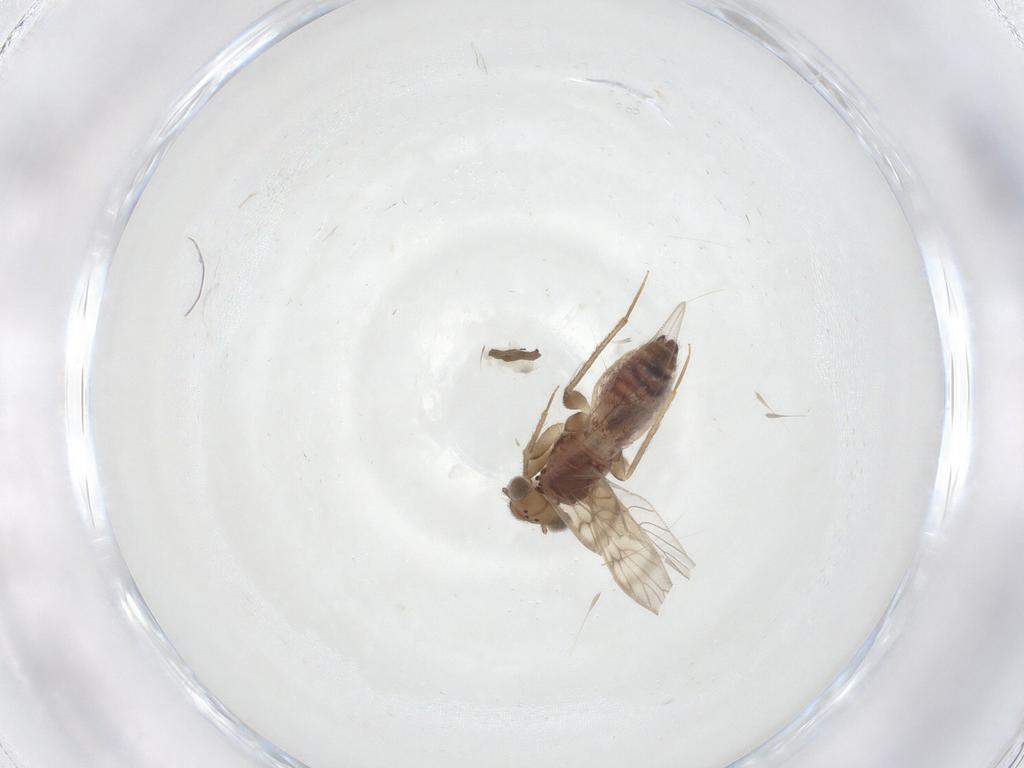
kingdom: Animalia
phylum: Arthropoda
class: Insecta
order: Psocodea
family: Lepidopsocidae
